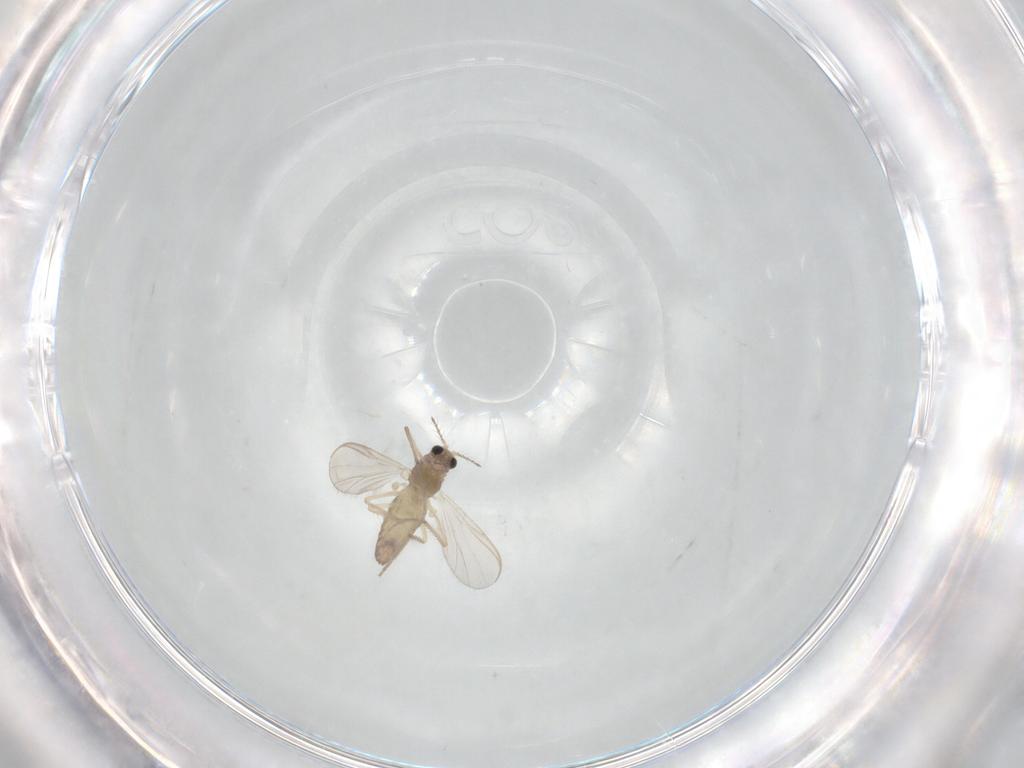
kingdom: Animalia
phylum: Arthropoda
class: Insecta
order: Diptera
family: Chironomidae
